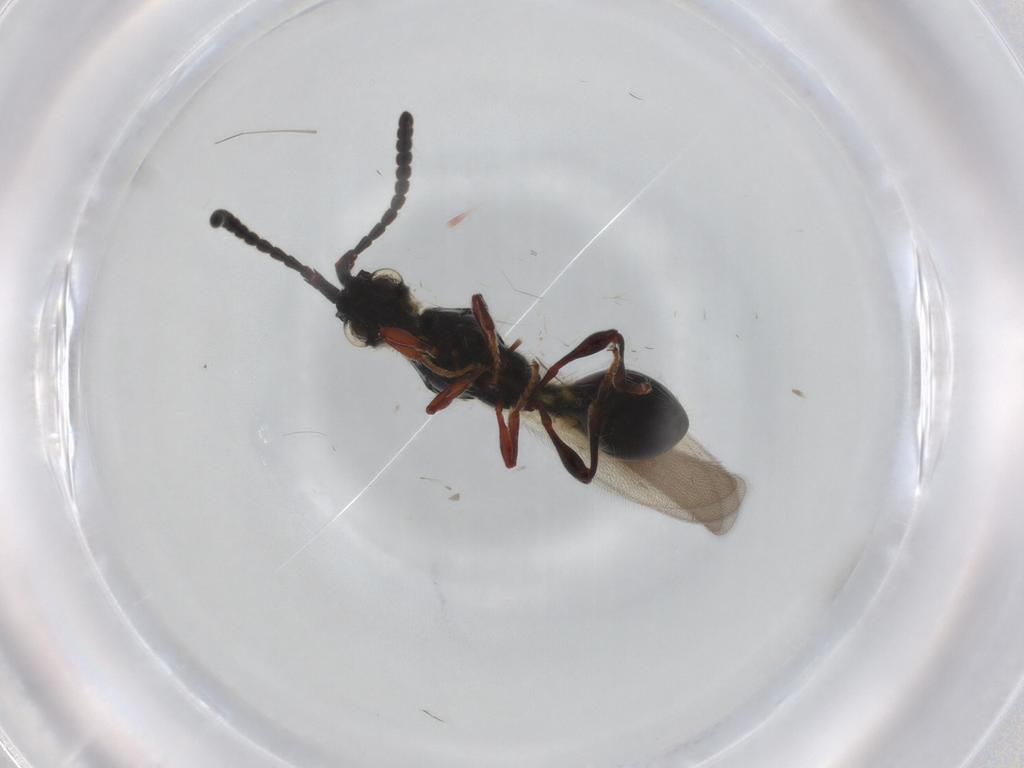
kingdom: Animalia
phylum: Arthropoda
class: Insecta
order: Hymenoptera
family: Diapriidae
